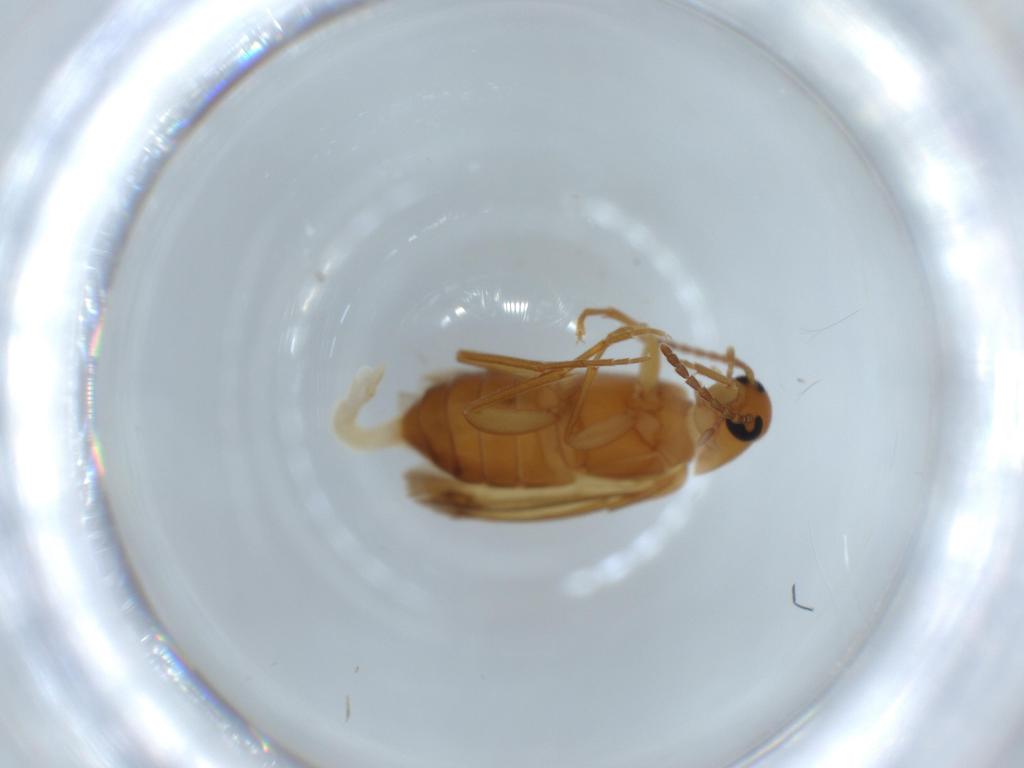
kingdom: Animalia
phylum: Arthropoda
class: Insecta
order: Coleoptera
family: Scraptiidae
